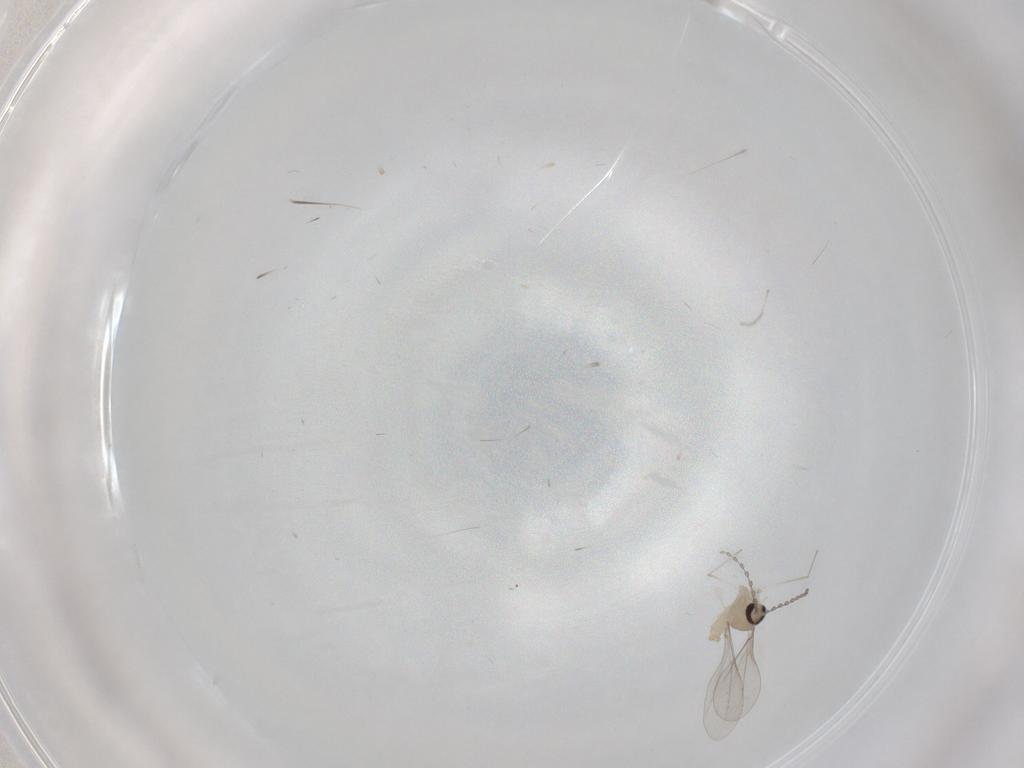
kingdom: Animalia
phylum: Arthropoda
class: Insecta
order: Diptera
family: Cecidomyiidae
